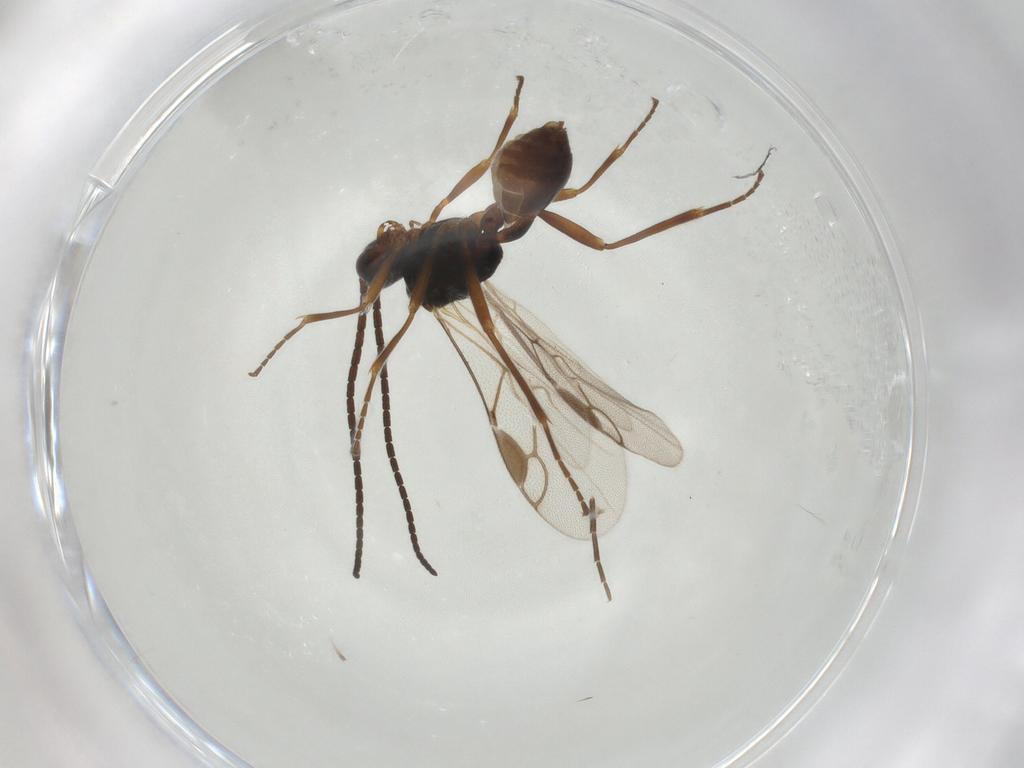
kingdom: Animalia
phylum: Arthropoda
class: Insecta
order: Hymenoptera
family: Braconidae
